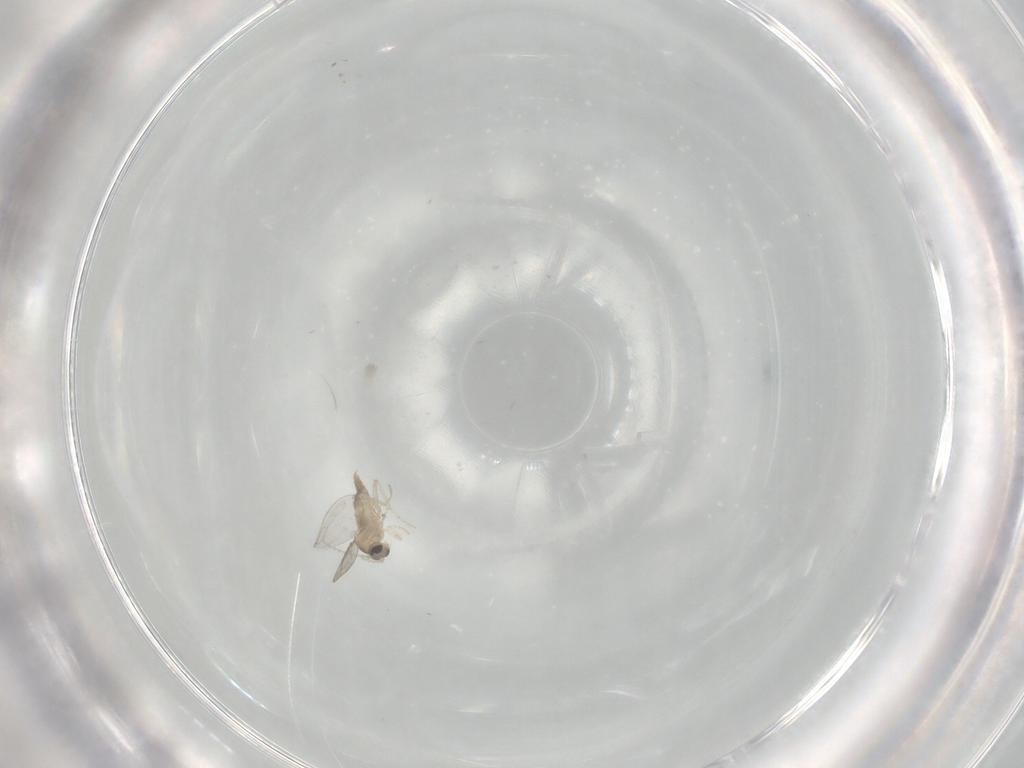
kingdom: Animalia
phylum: Arthropoda
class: Insecta
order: Diptera
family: Cecidomyiidae
